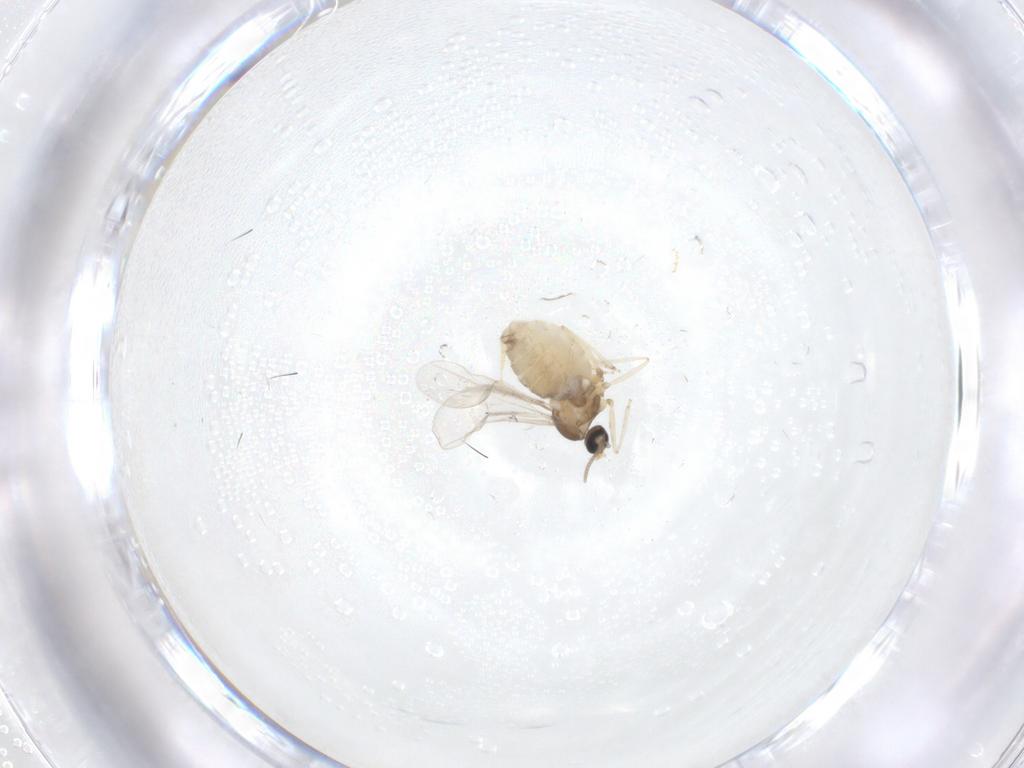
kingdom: Animalia
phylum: Arthropoda
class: Insecta
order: Diptera
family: Cecidomyiidae
